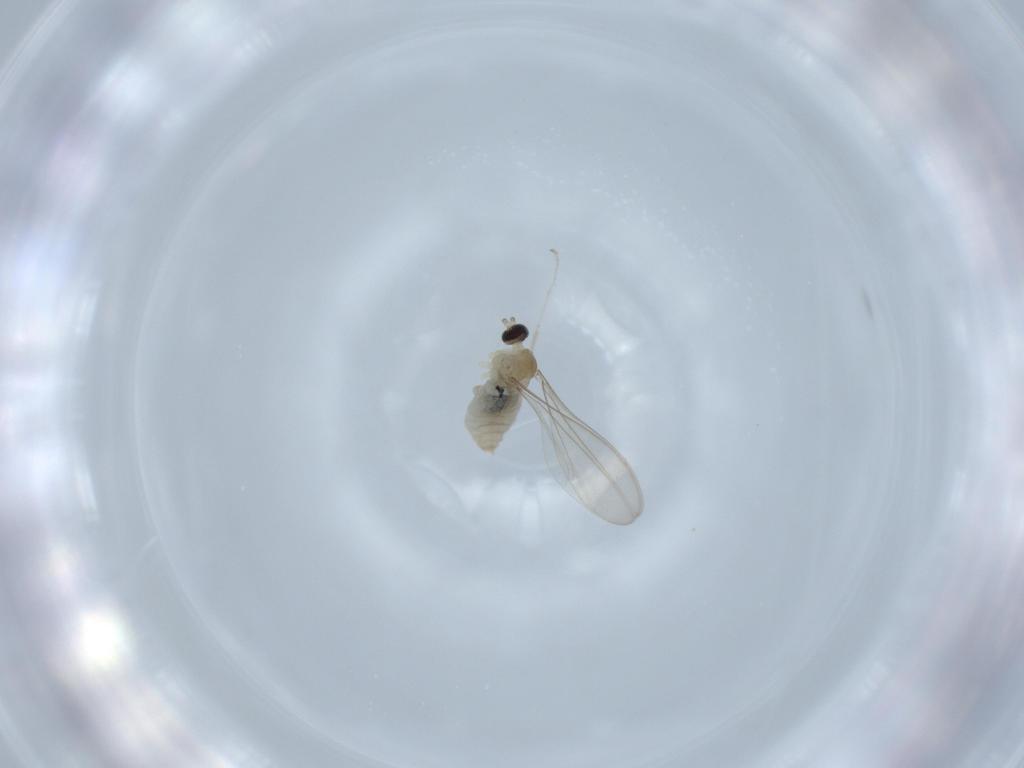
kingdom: Animalia
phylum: Arthropoda
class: Insecta
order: Diptera
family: Cecidomyiidae
